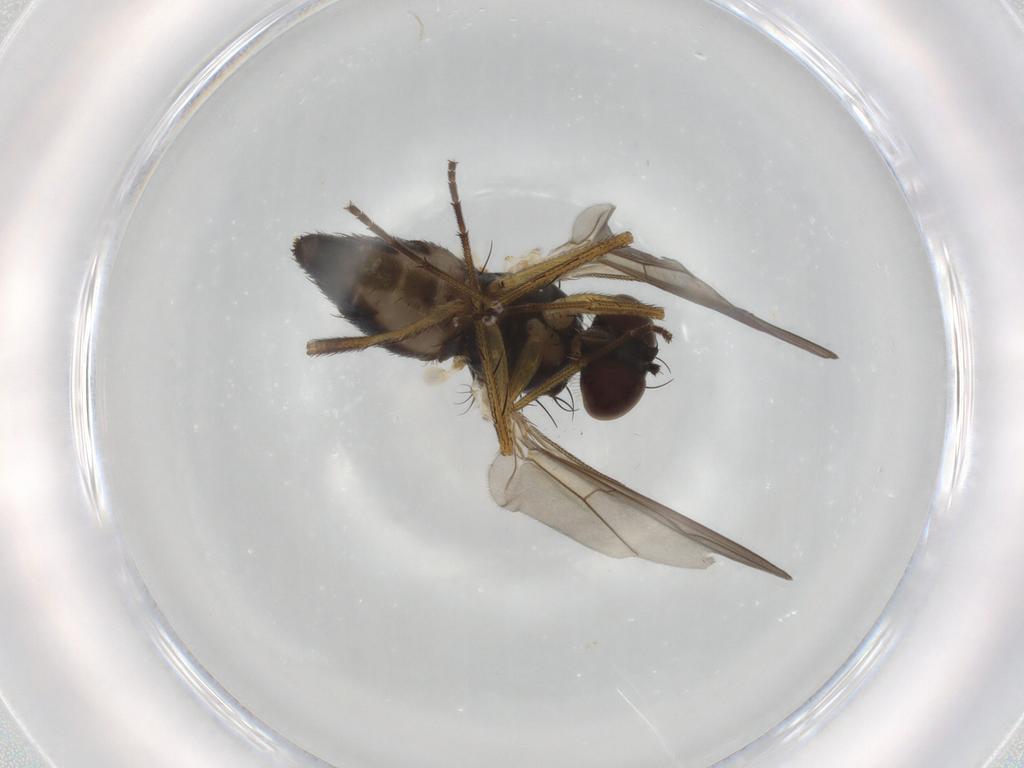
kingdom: Animalia
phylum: Arthropoda
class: Insecta
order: Diptera
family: Dolichopodidae
